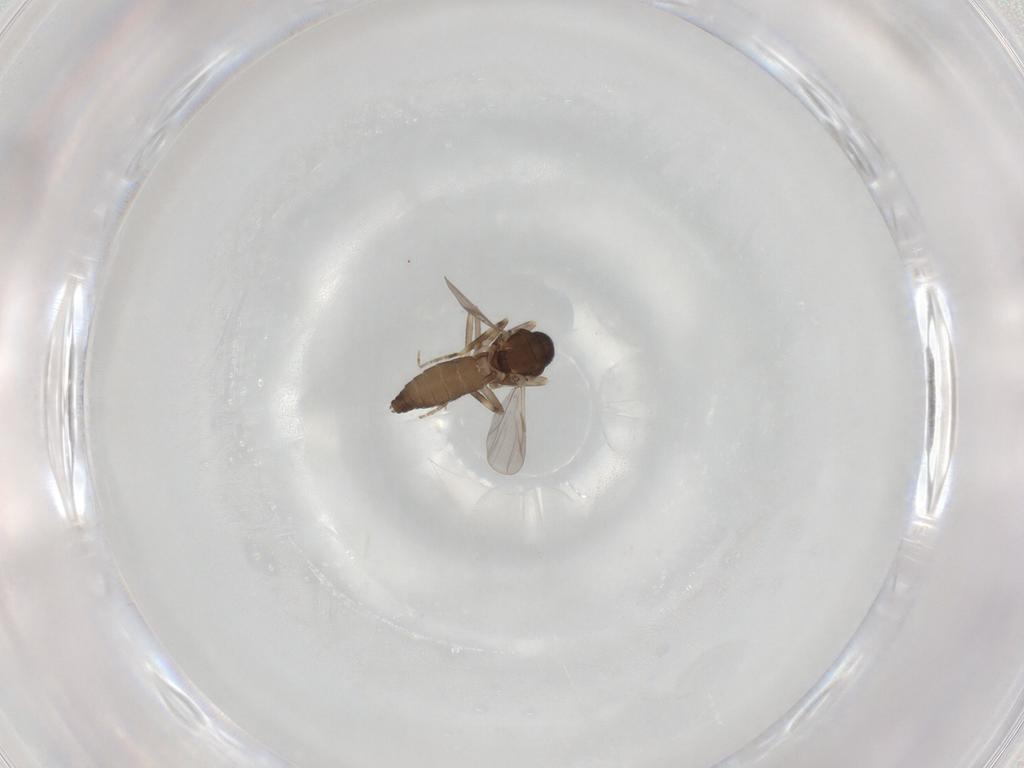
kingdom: Animalia
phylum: Arthropoda
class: Insecta
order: Diptera
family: Ceratopogonidae
